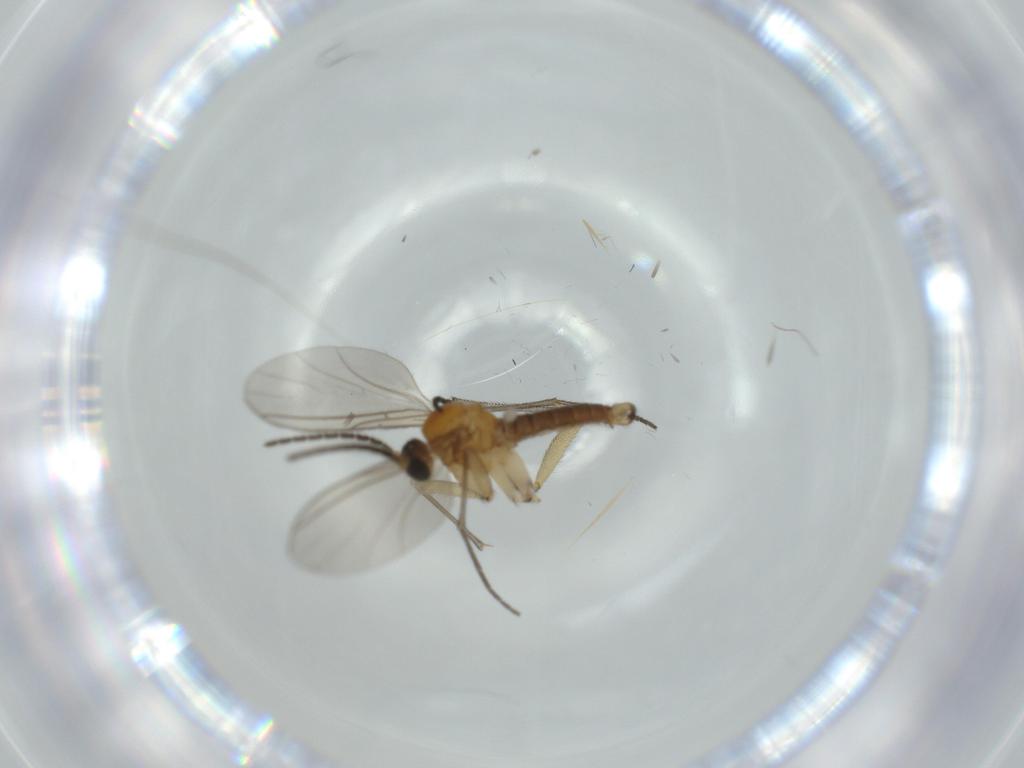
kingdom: Animalia
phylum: Arthropoda
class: Insecta
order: Diptera
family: Sciaridae
